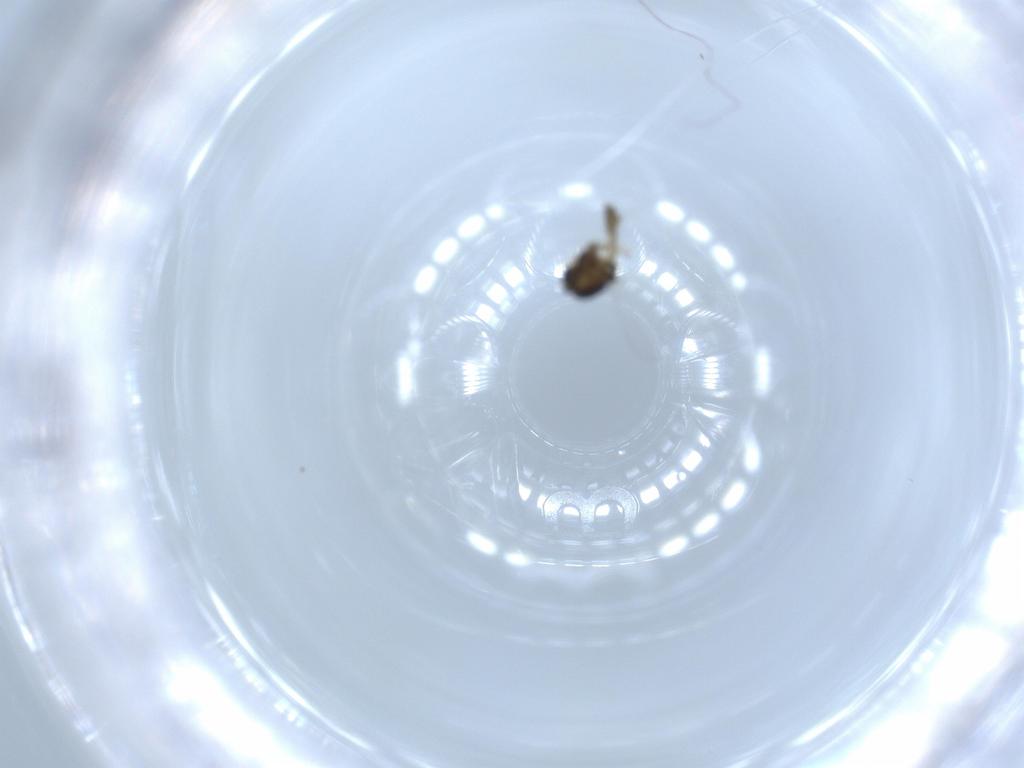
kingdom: Animalia
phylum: Arthropoda
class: Insecta
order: Diptera
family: Chironomidae
